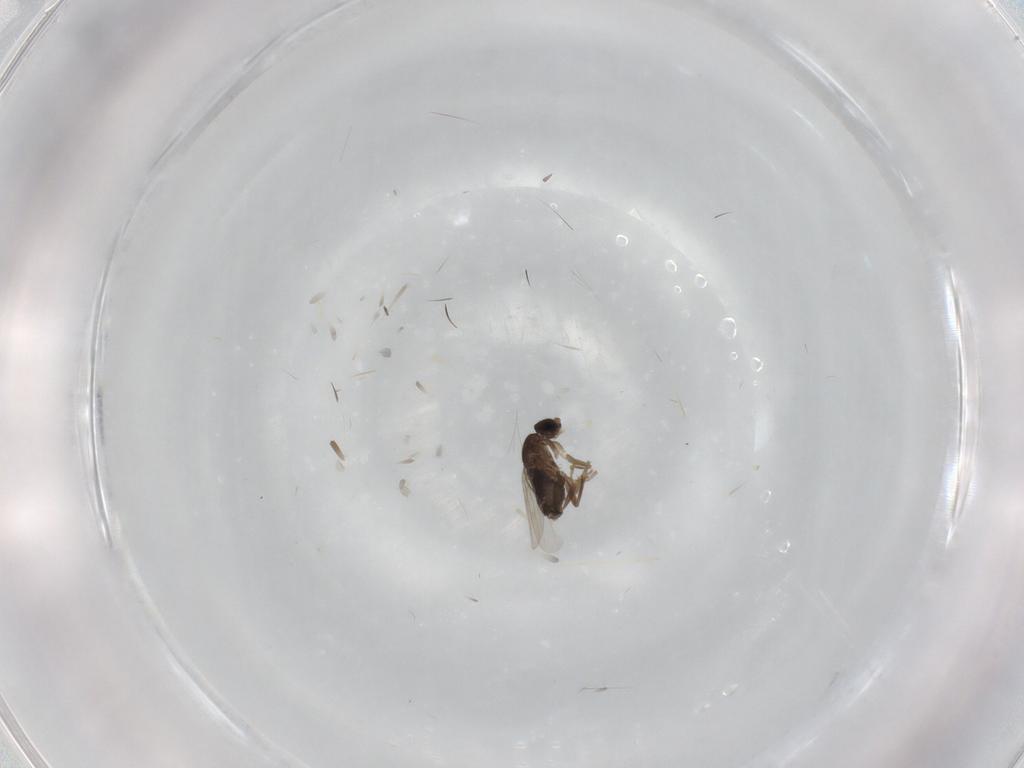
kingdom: Animalia
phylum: Arthropoda
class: Insecta
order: Diptera
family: Phoridae
